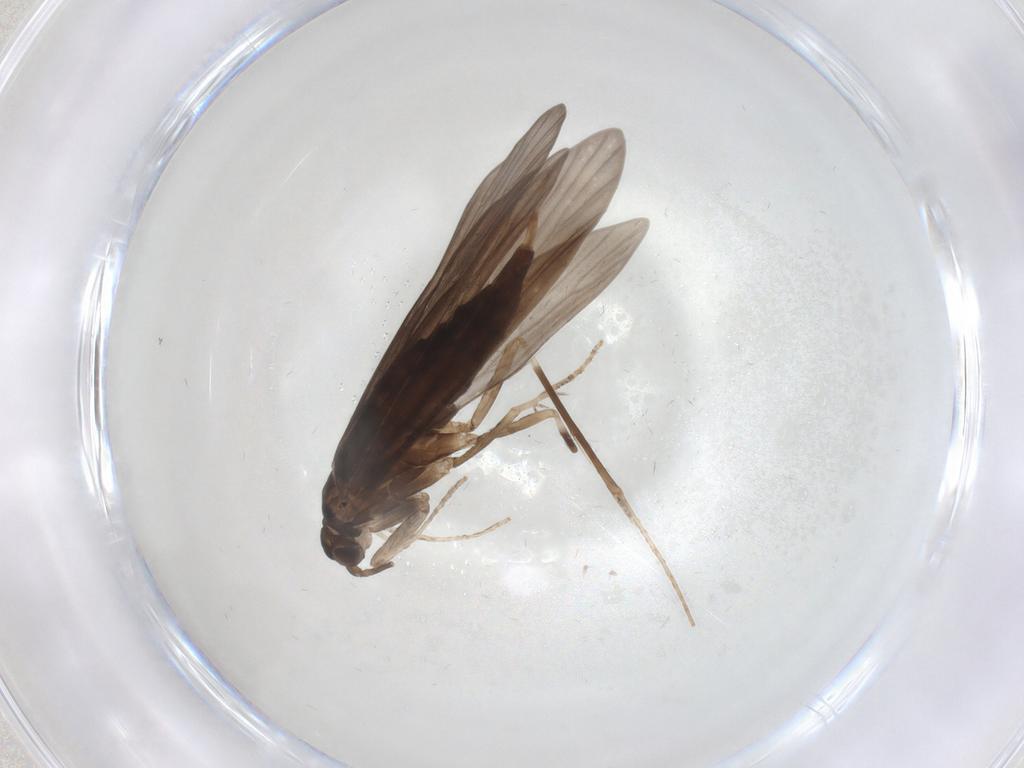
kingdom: Animalia
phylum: Arthropoda
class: Insecta
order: Trichoptera
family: Xiphocentronidae
